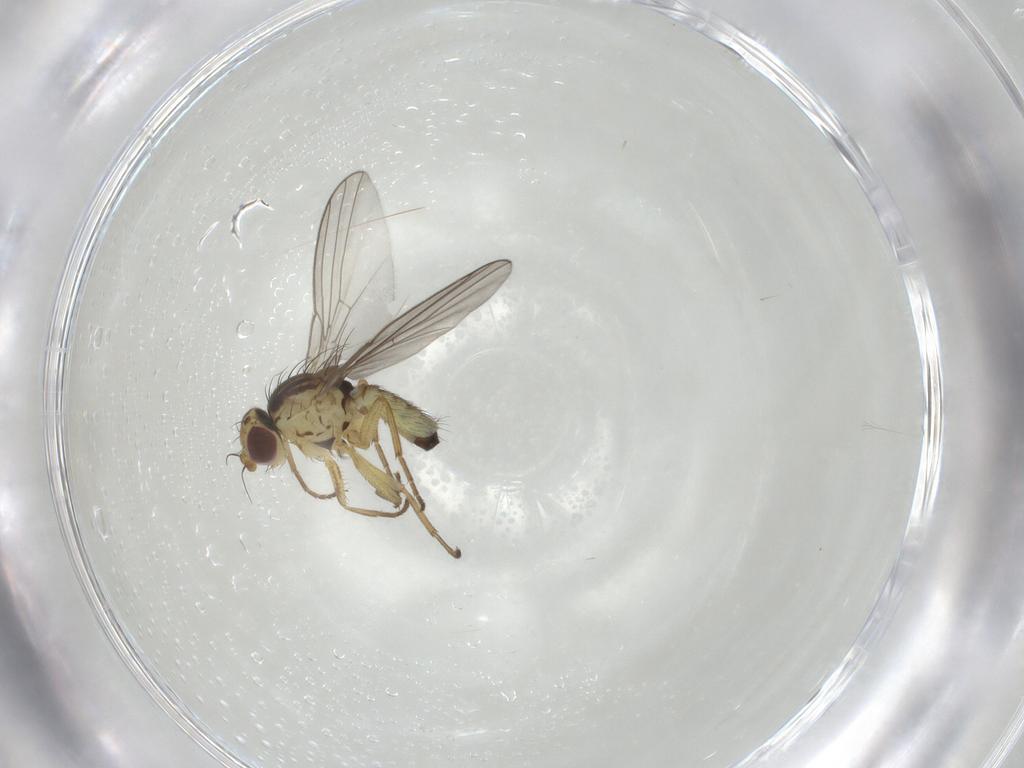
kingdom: Animalia
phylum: Arthropoda
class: Insecta
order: Diptera
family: Agromyzidae
